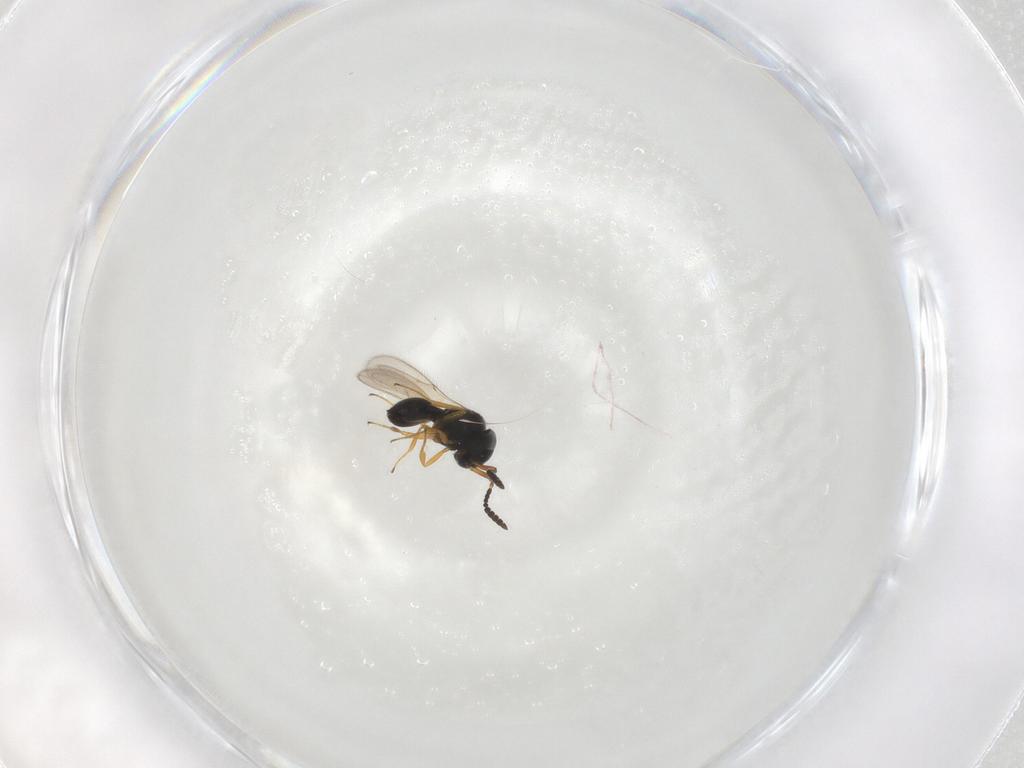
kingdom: Animalia
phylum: Arthropoda
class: Insecta
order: Hymenoptera
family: Scelionidae
